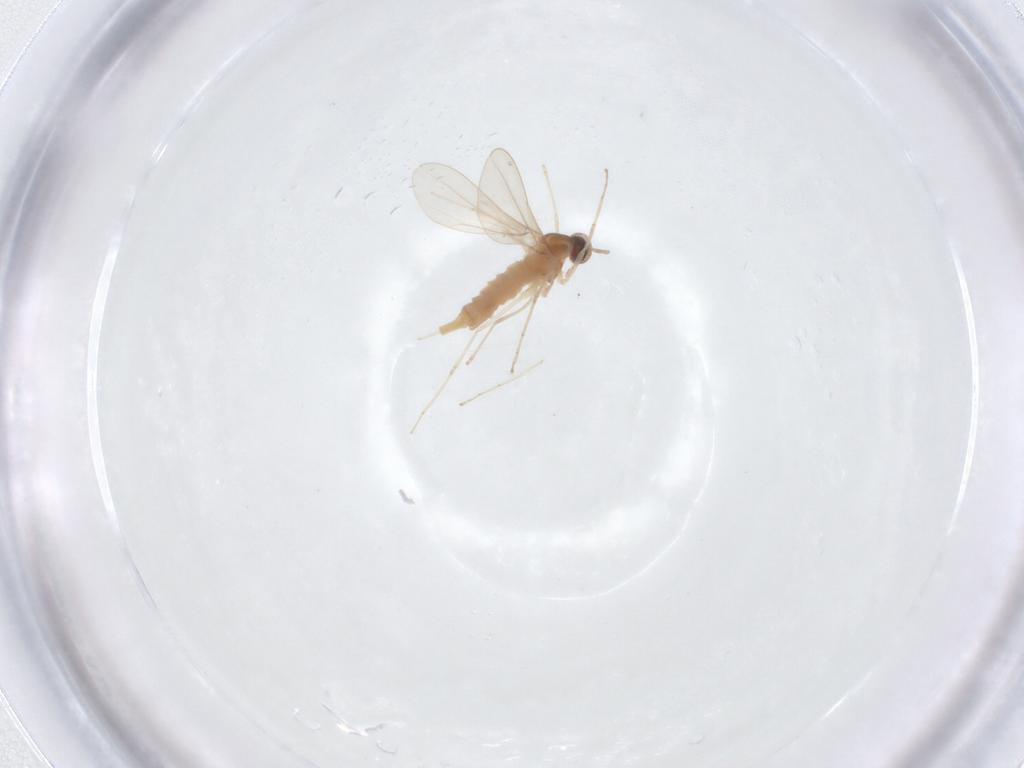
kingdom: Animalia
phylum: Arthropoda
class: Insecta
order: Diptera
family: Cecidomyiidae
